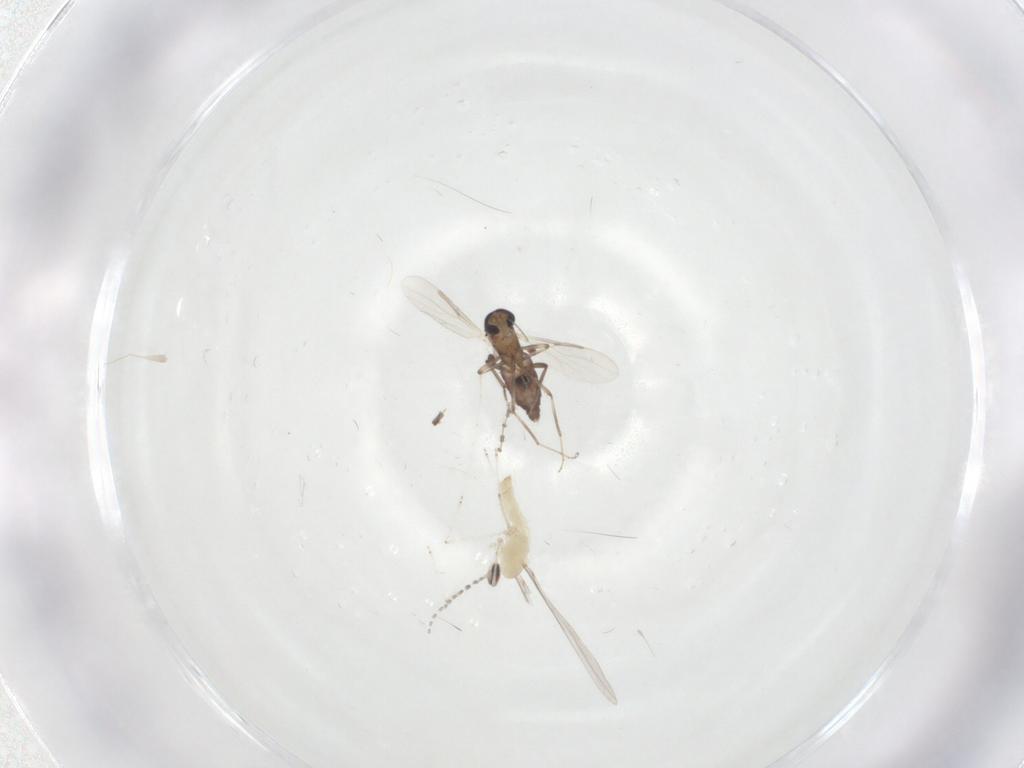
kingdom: Animalia
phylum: Arthropoda
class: Insecta
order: Diptera
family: Cecidomyiidae
